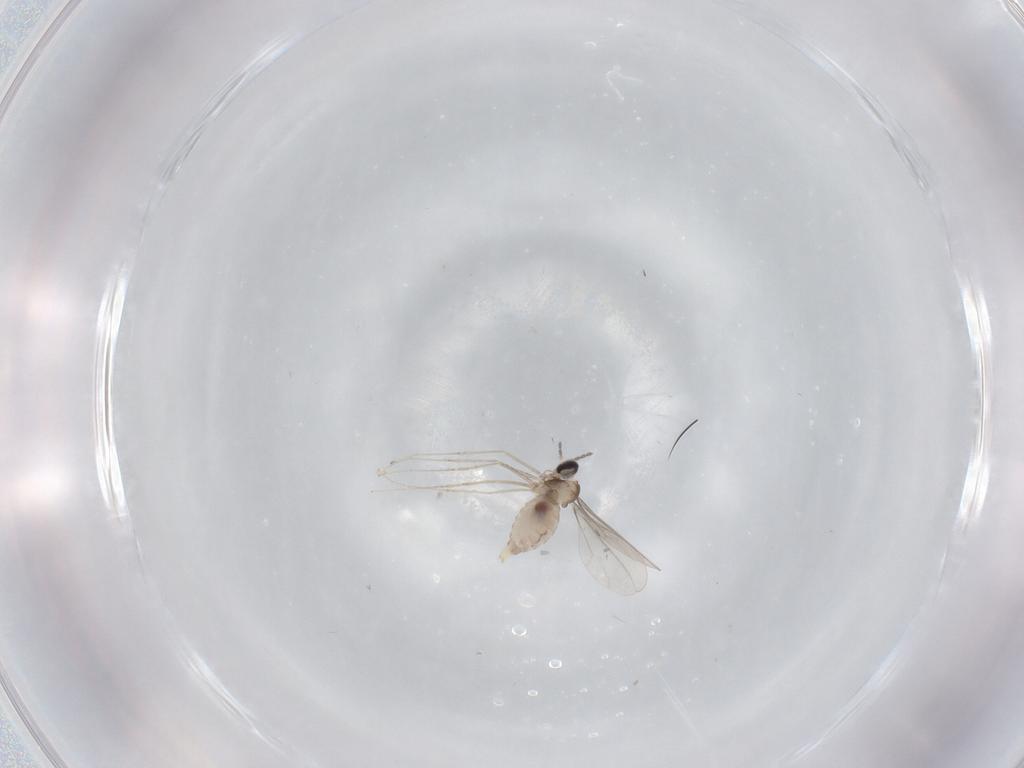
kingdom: Animalia
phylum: Arthropoda
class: Insecta
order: Diptera
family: Cecidomyiidae
